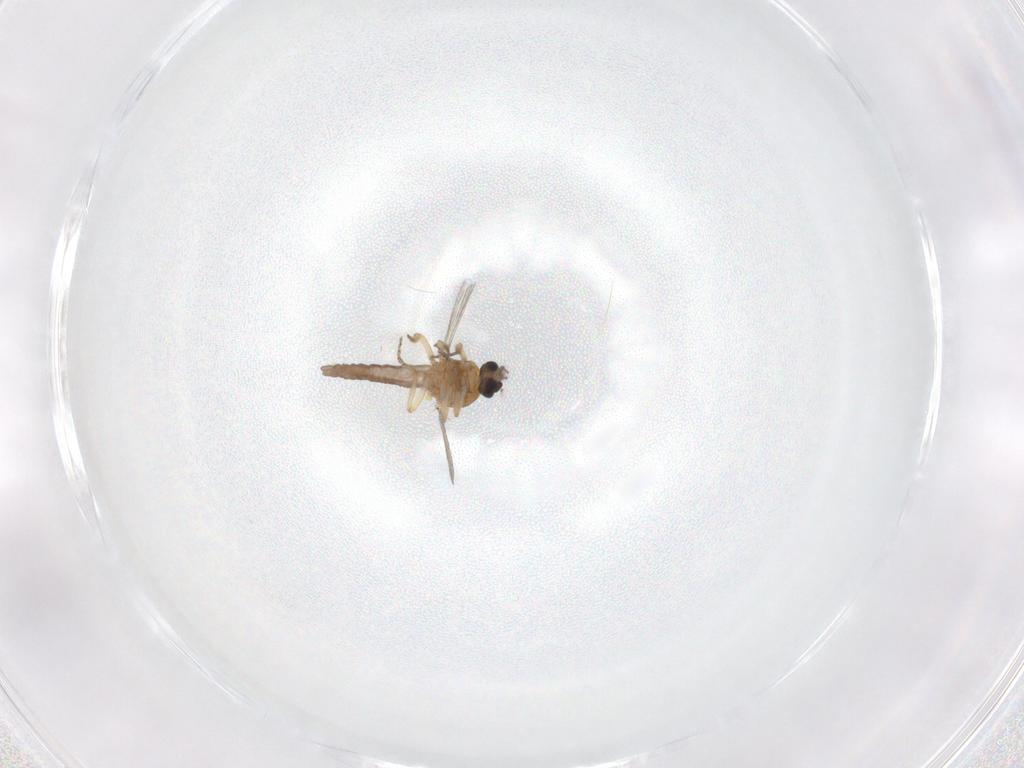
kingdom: Animalia
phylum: Arthropoda
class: Insecta
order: Diptera
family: Ceratopogonidae
